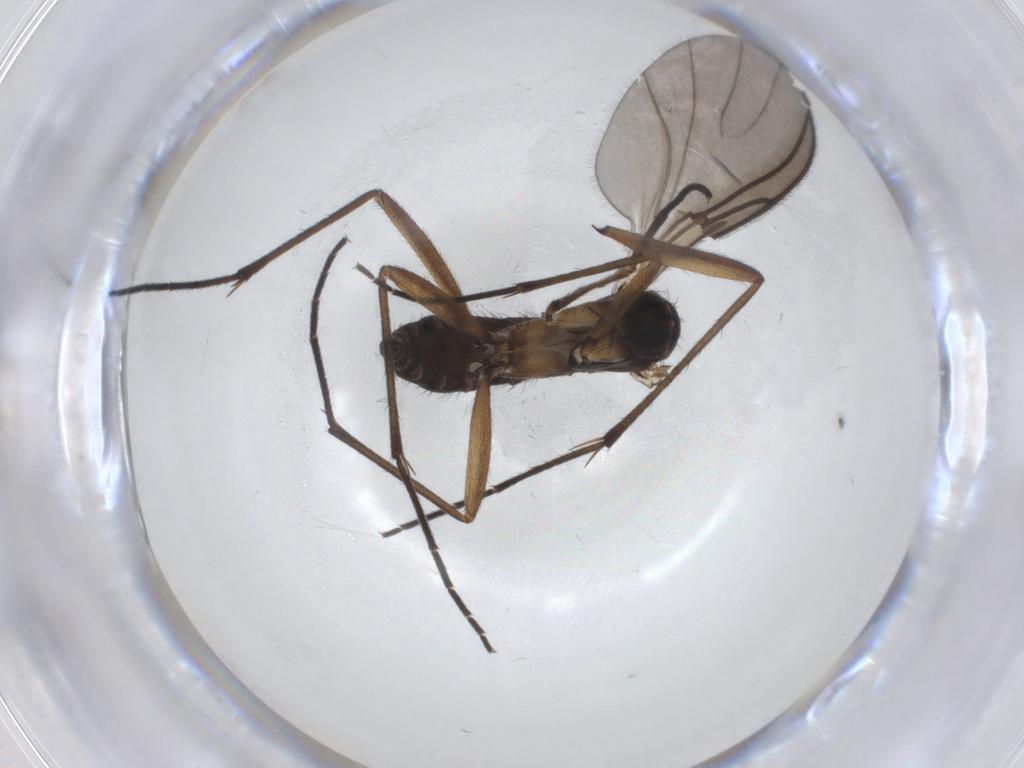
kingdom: Animalia
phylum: Arthropoda
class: Insecta
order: Diptera
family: Sciaridae
